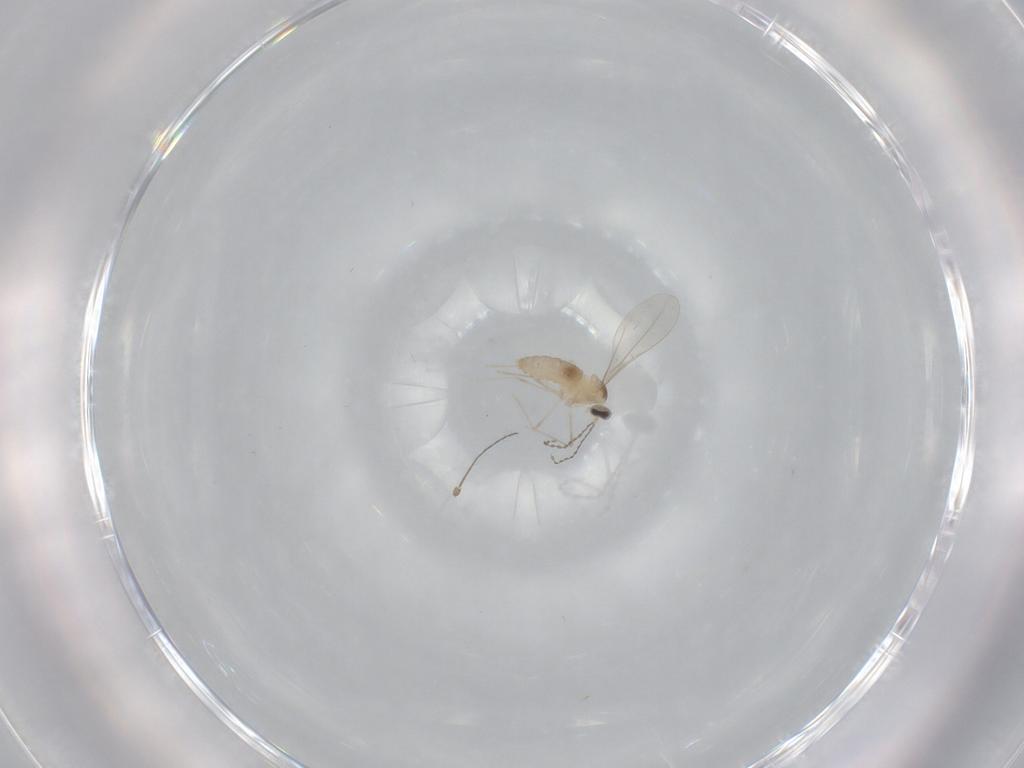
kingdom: Animalia
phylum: Arthropoda
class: Insecta
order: Diptera
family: Cecidomyiidae
